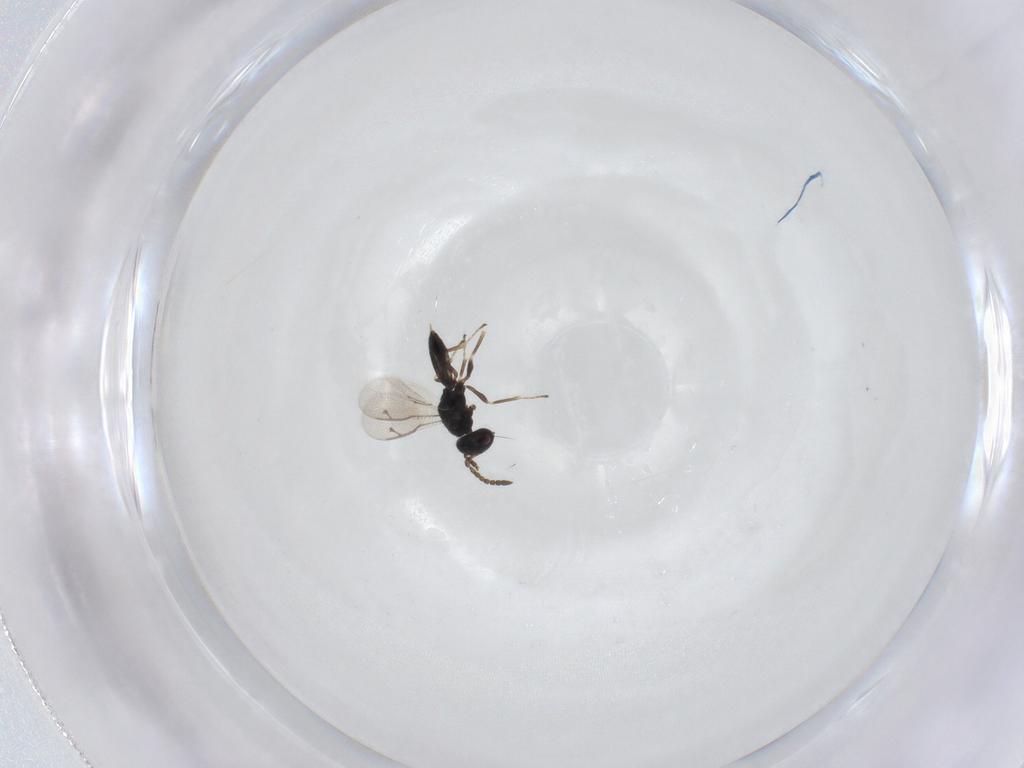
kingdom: Animalia
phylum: Arthropoda
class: Insecta
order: Hymenoptera
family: Pteromalidae
